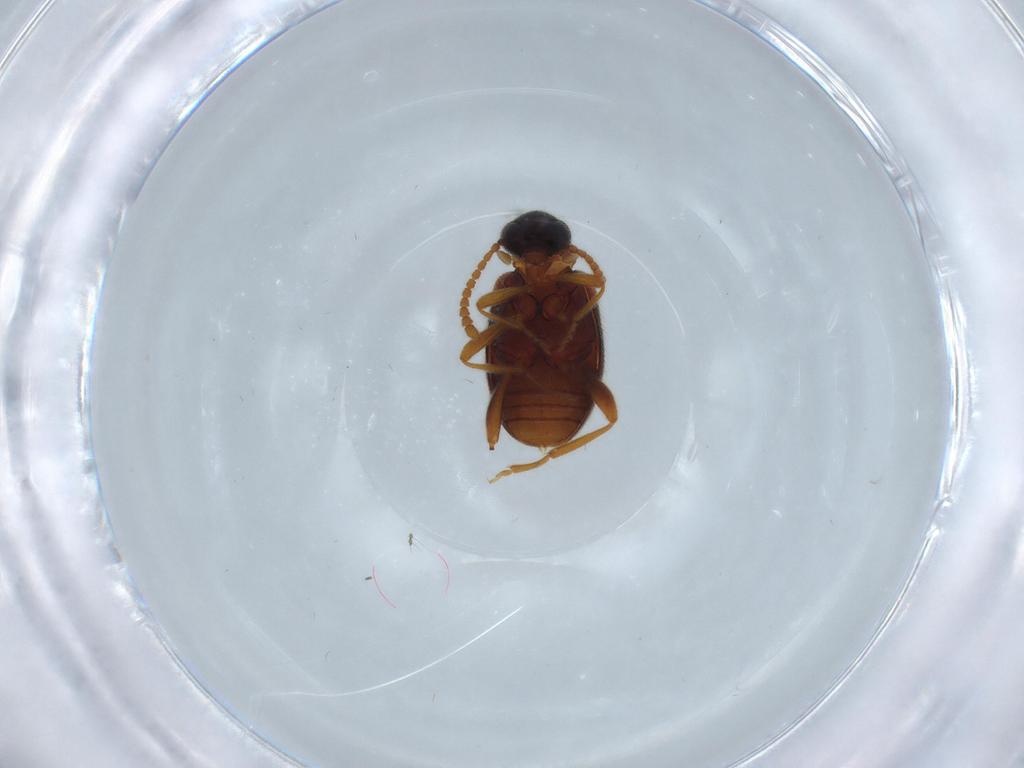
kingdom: Animalia
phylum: Arthropoda
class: Insecta
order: Coleoptera
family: Aderidae
